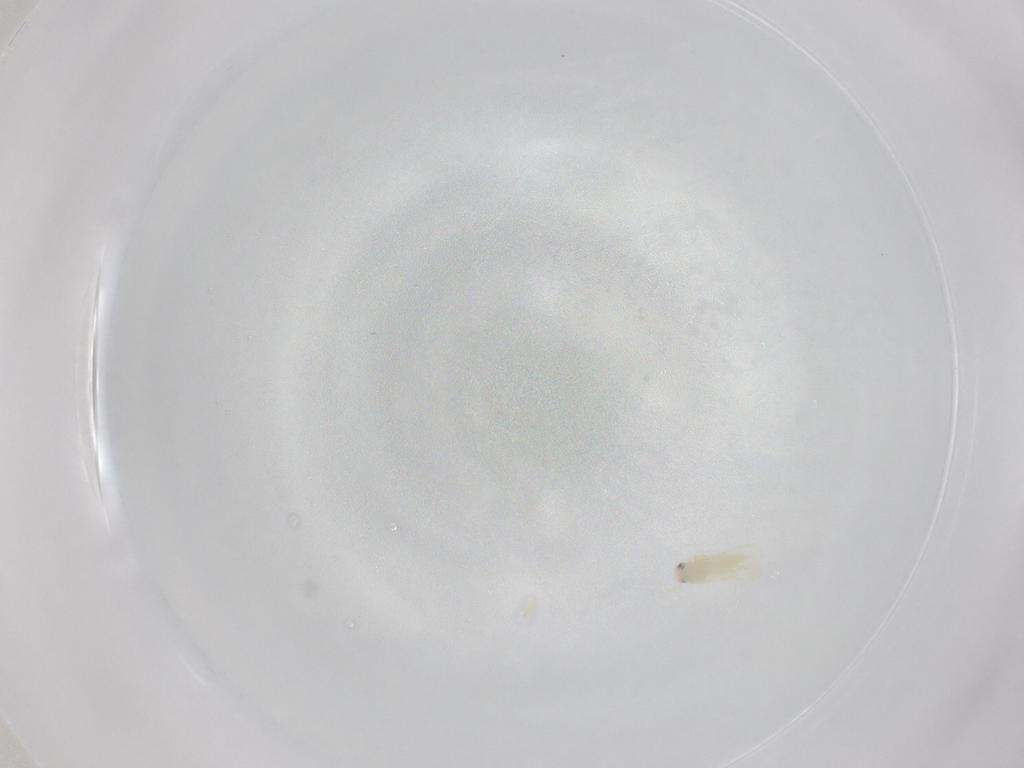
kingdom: Animalia
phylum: Arthropoda
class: Insecta
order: Hemiptera
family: Aleyrodidae
